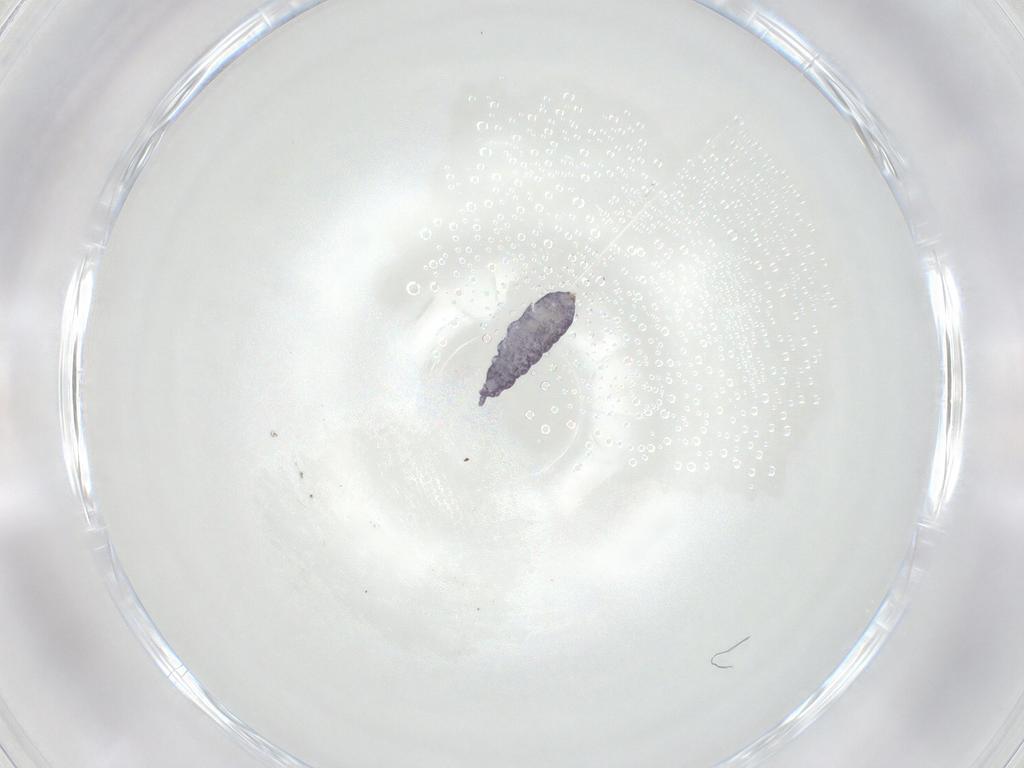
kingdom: Animalia
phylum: Arthropoda
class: Collembola
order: Poduromorpha
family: Brachystomellidae
